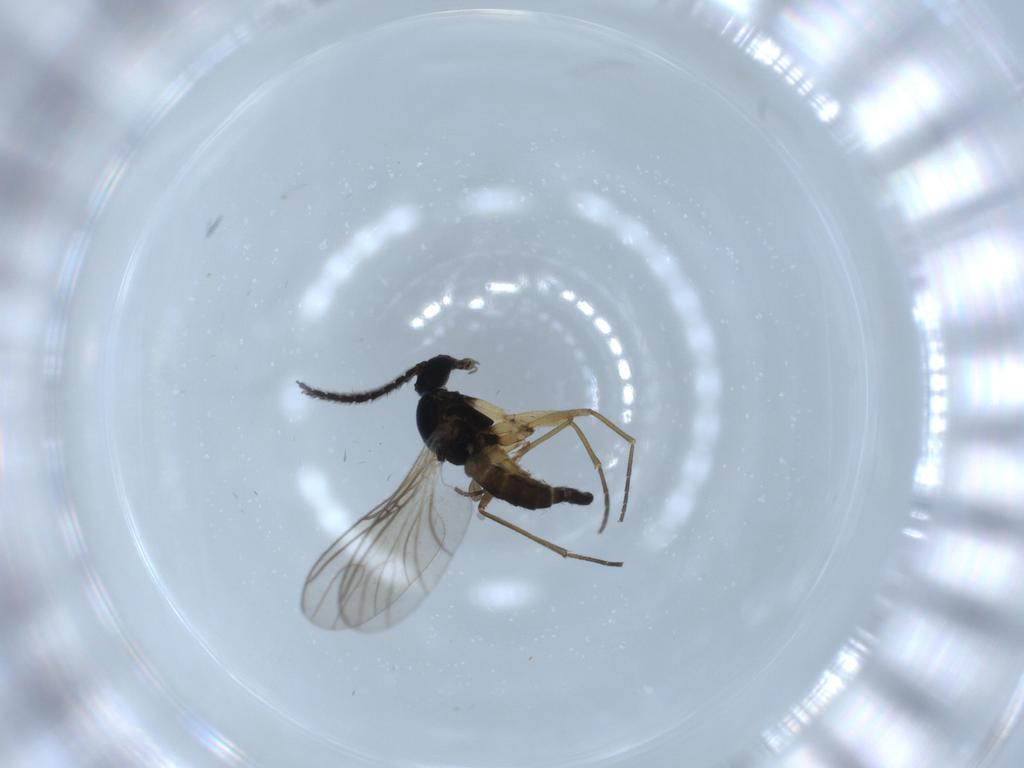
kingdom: Animalia
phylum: Arthropoda
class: Insecta
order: Diptera
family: Sciaridae
